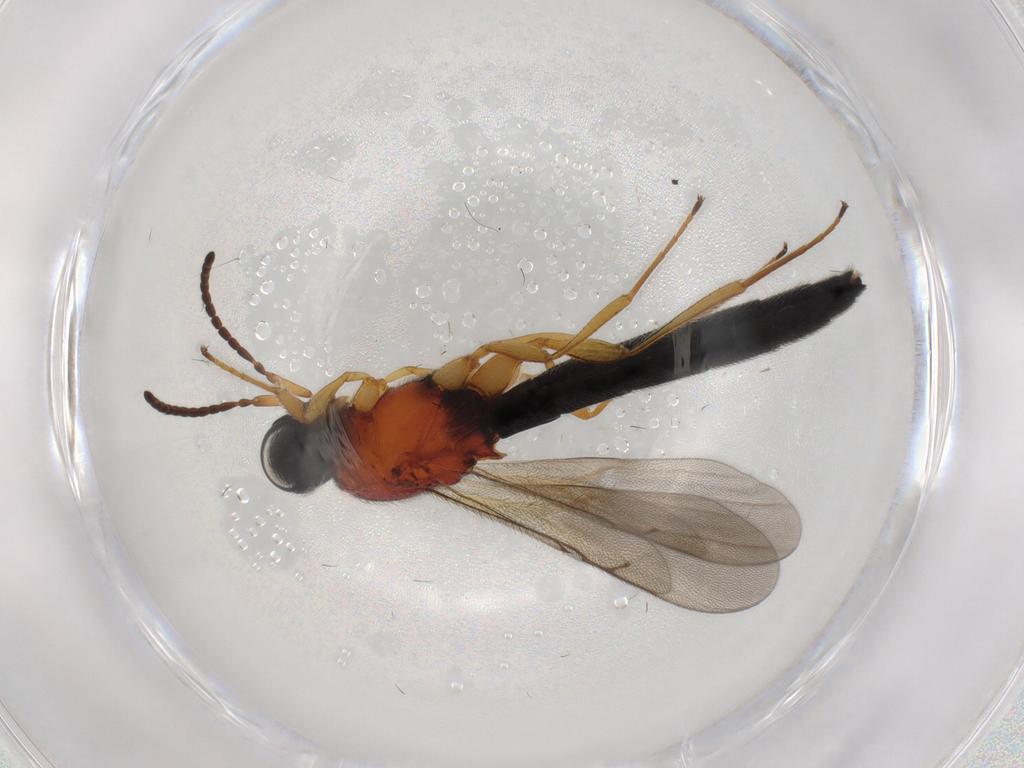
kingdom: Animalia
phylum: Arthropoda
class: Insecta
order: Hymenoptera
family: Scelionidae
